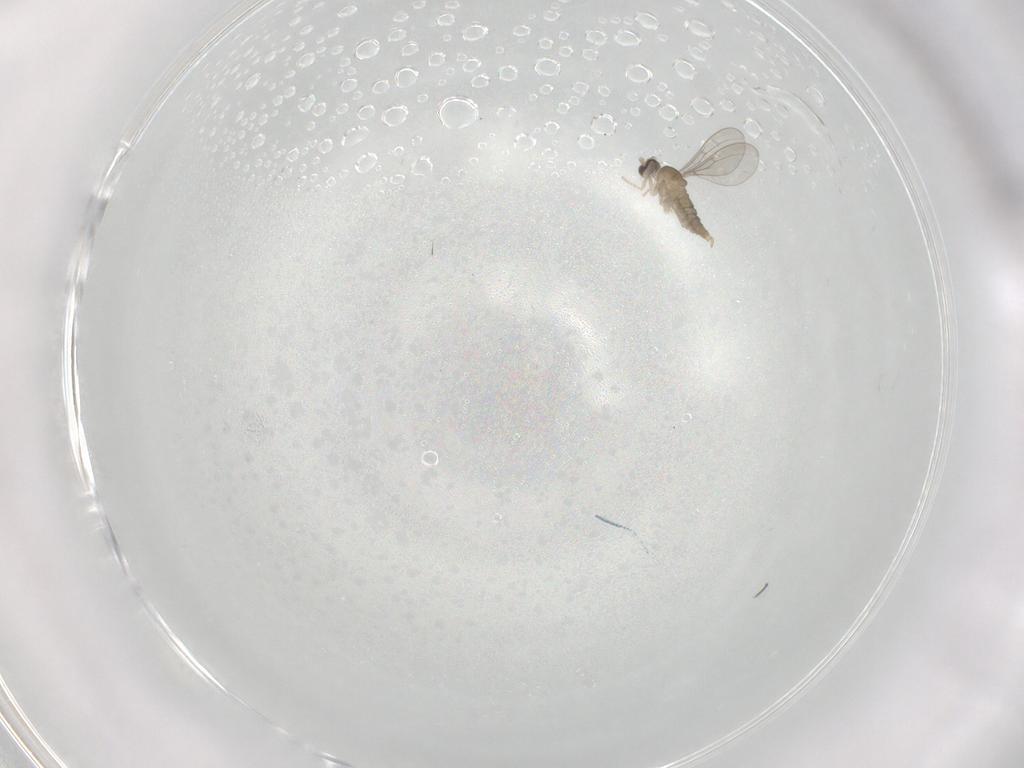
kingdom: Animalia
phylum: Arthropoda
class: Insecta
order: Diptera
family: Cecidomyiidae
